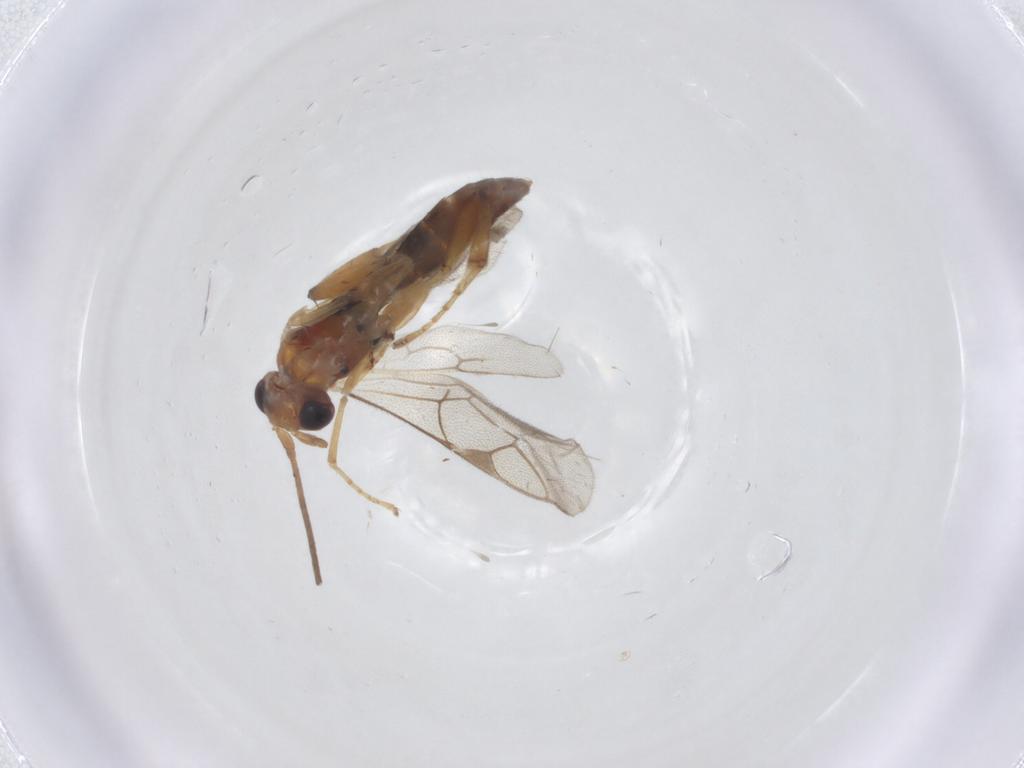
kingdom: Animalia
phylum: Arthropoda
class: Insecta
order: Hymenoptera
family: Ichneumonidae
